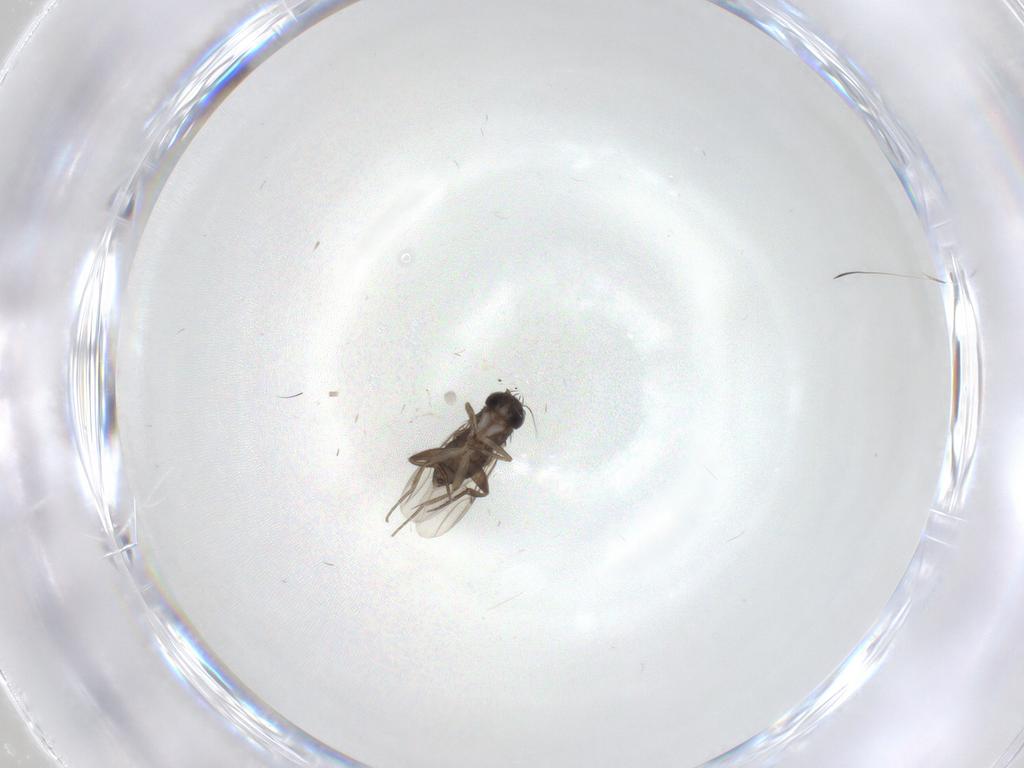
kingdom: Animalia
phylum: Arthropoda
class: Insecta
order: Diptera
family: Phoridae
